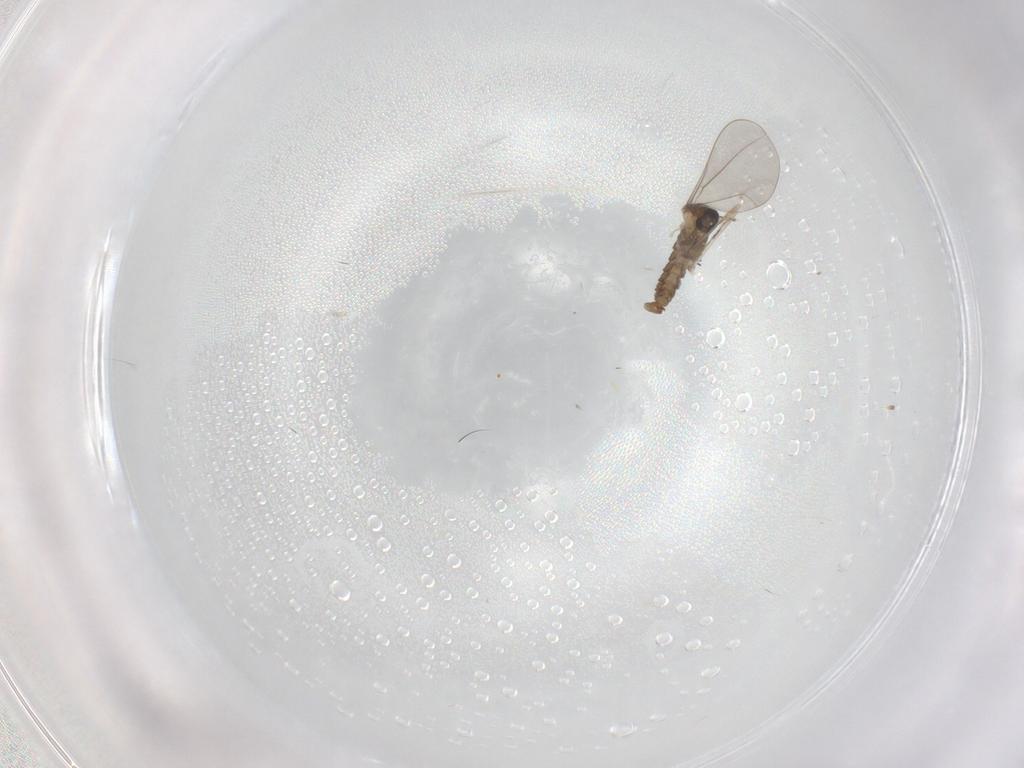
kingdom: Animalia
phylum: Arthropoda
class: Insecta
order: Diptera
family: Cecidomyiidae
